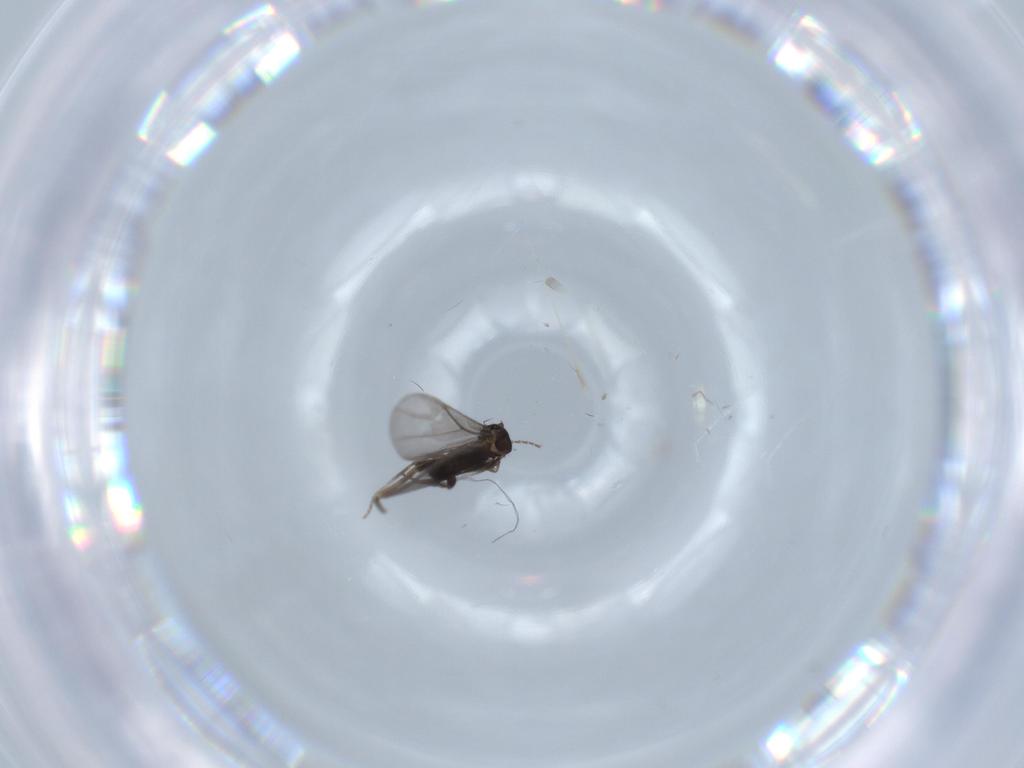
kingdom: Animalia
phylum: Arthropoda
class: Insecta
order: Diptera
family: Phoridae
